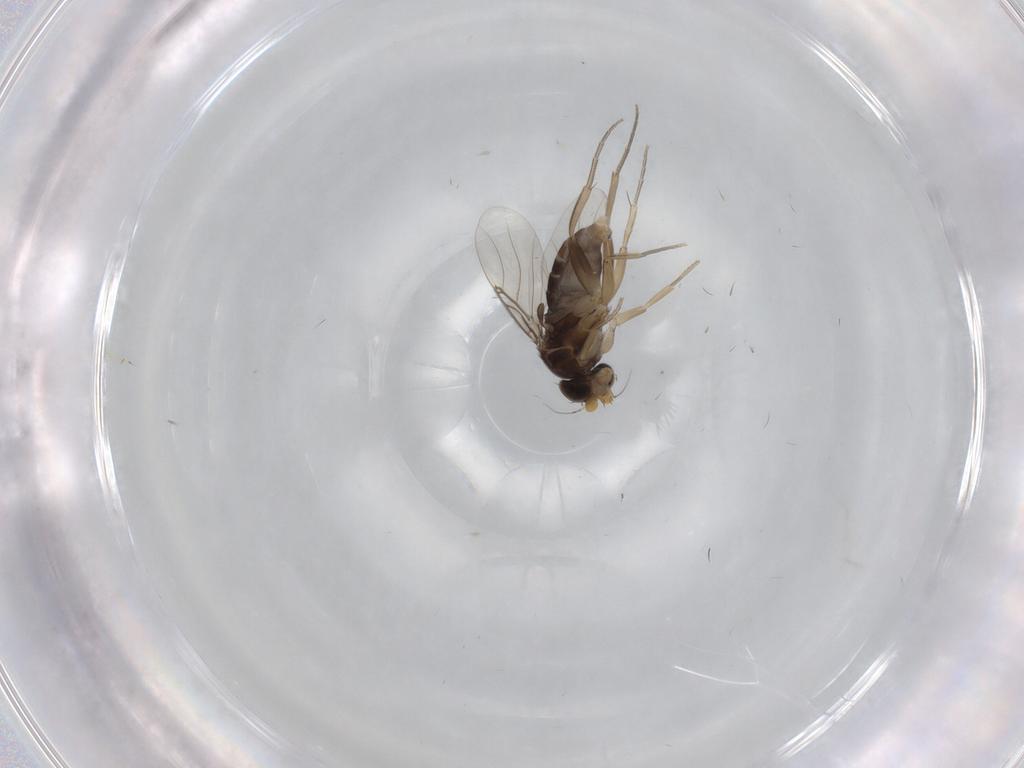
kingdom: Animalia
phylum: Arthropoda
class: Insecta
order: Diptera
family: Phoridae
